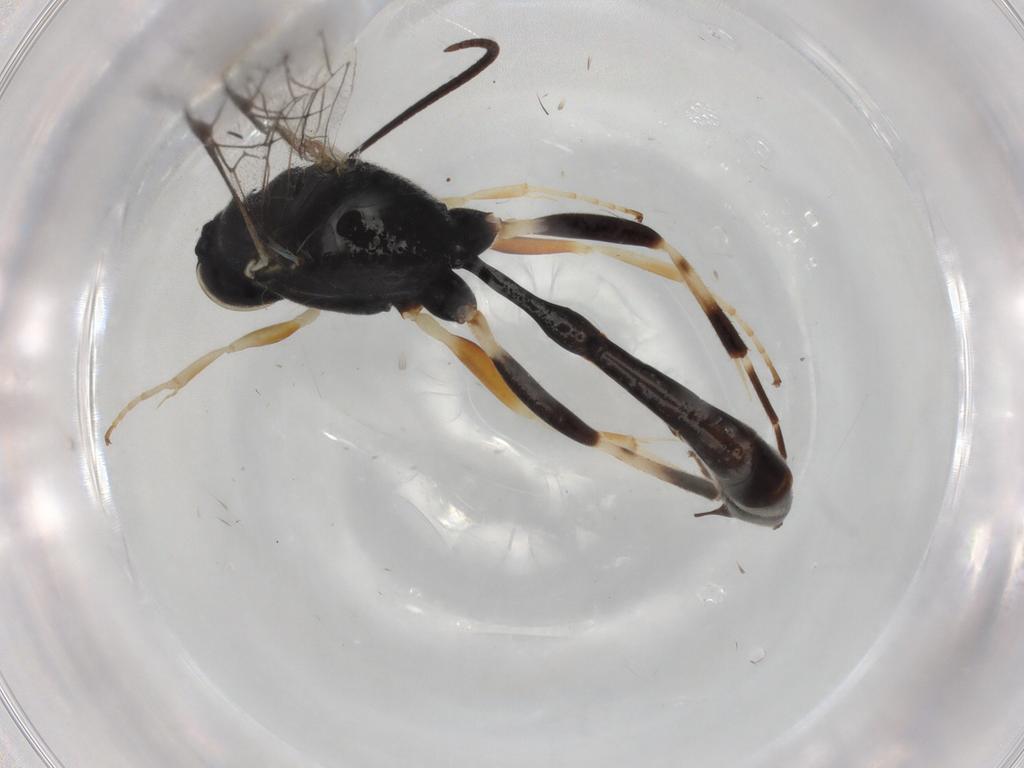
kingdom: Animalia
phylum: Arthropoda
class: Insecta
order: Hymenoptera
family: Ichneumonidae
